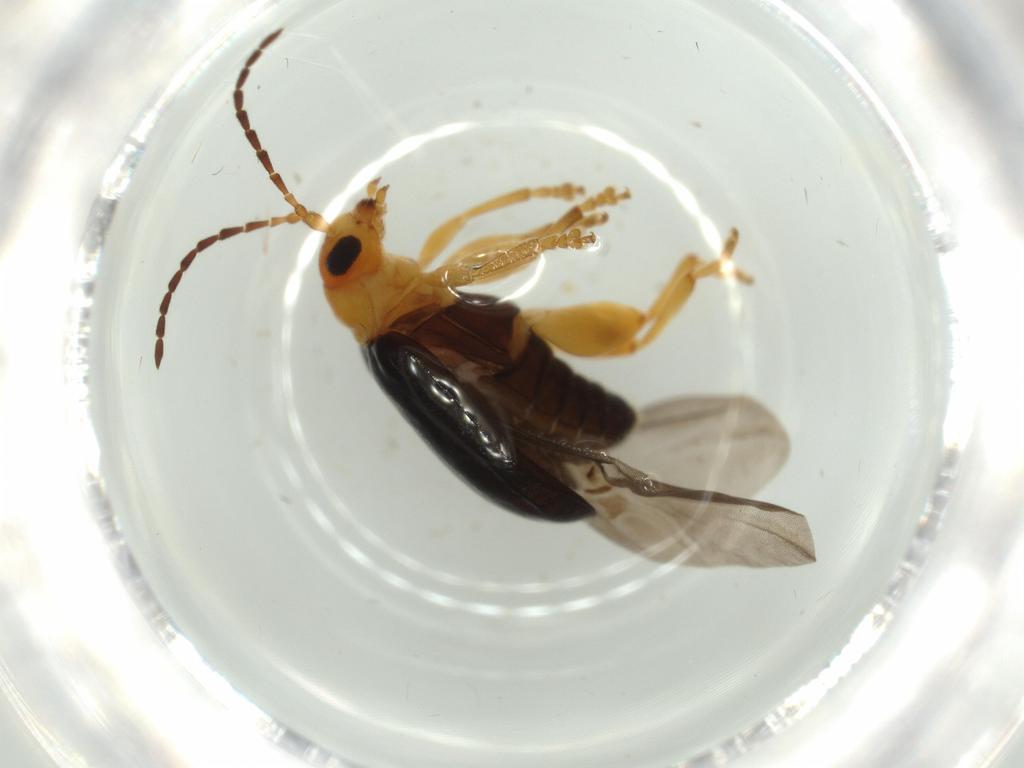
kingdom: Animalia
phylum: Arthropoda
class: Insecta
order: Coleoptera
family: Chrysomelidae
